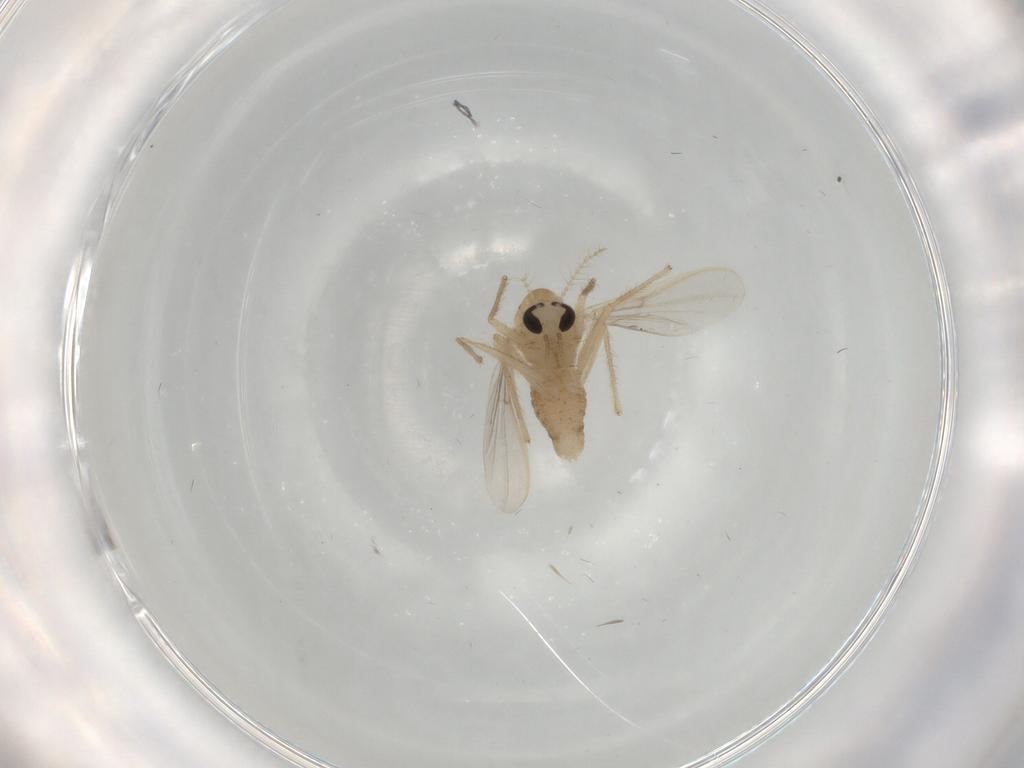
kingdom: Animalia
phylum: Arthropoda
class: Insecta
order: Diptera
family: Chironomidae
